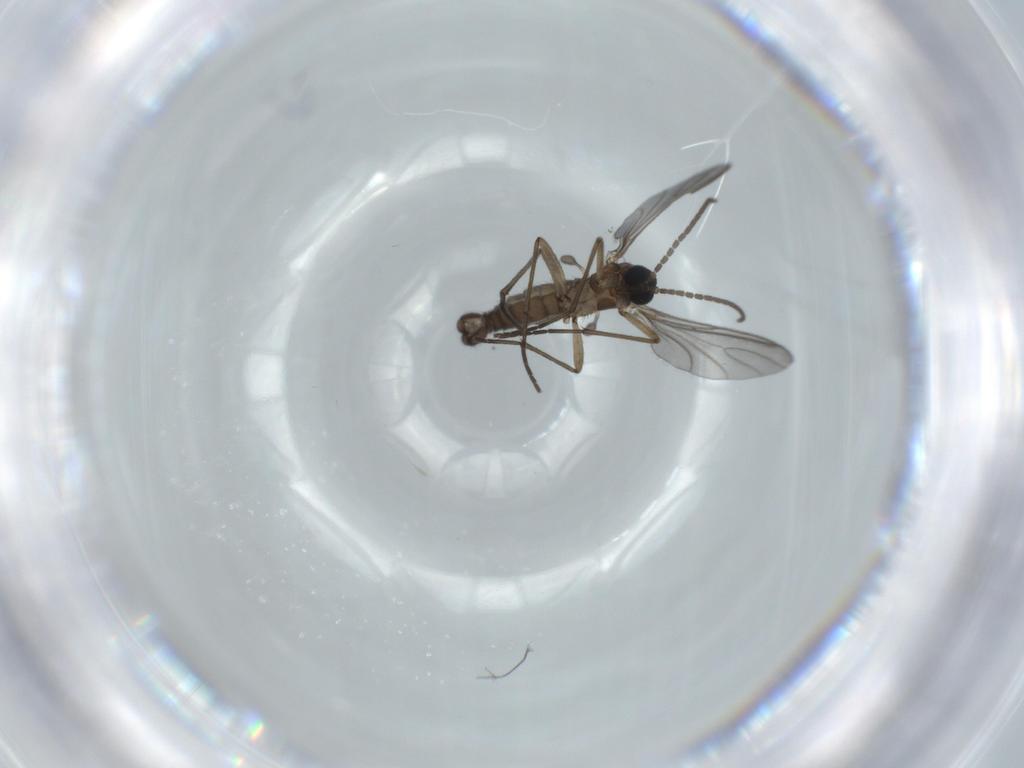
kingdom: Animalia
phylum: Arthropoda
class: Insecta
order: Diptera
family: Sciaridae
